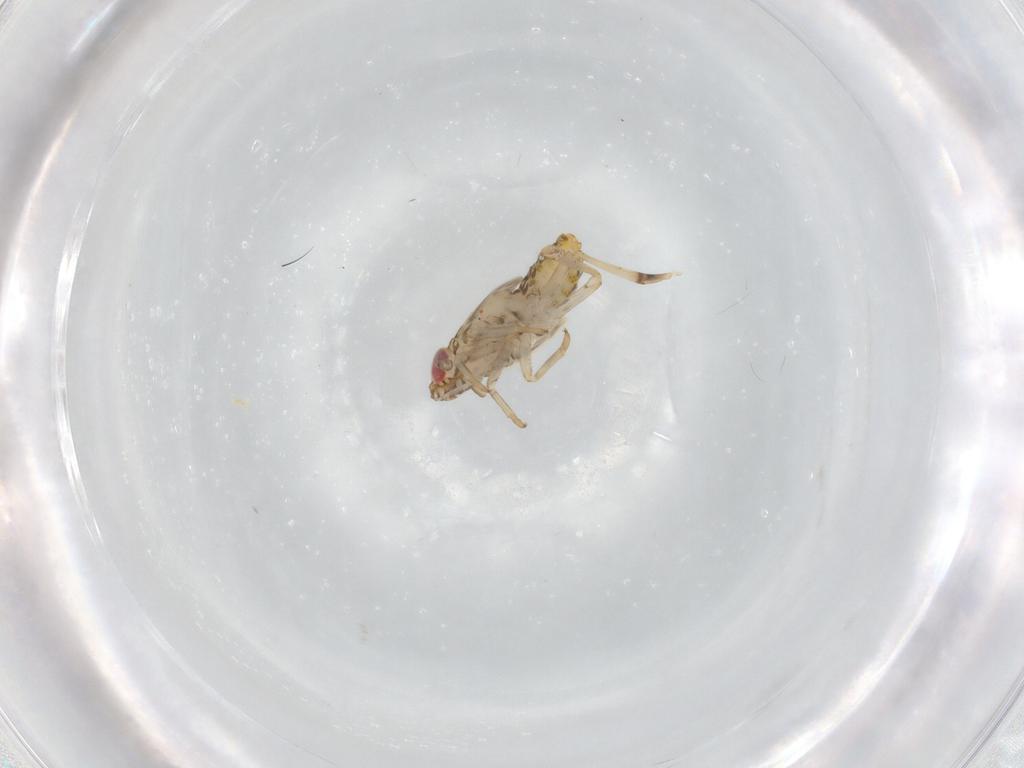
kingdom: Animalia
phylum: Arthropoda
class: Insecta
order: Hemiptera
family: Delphacidae
